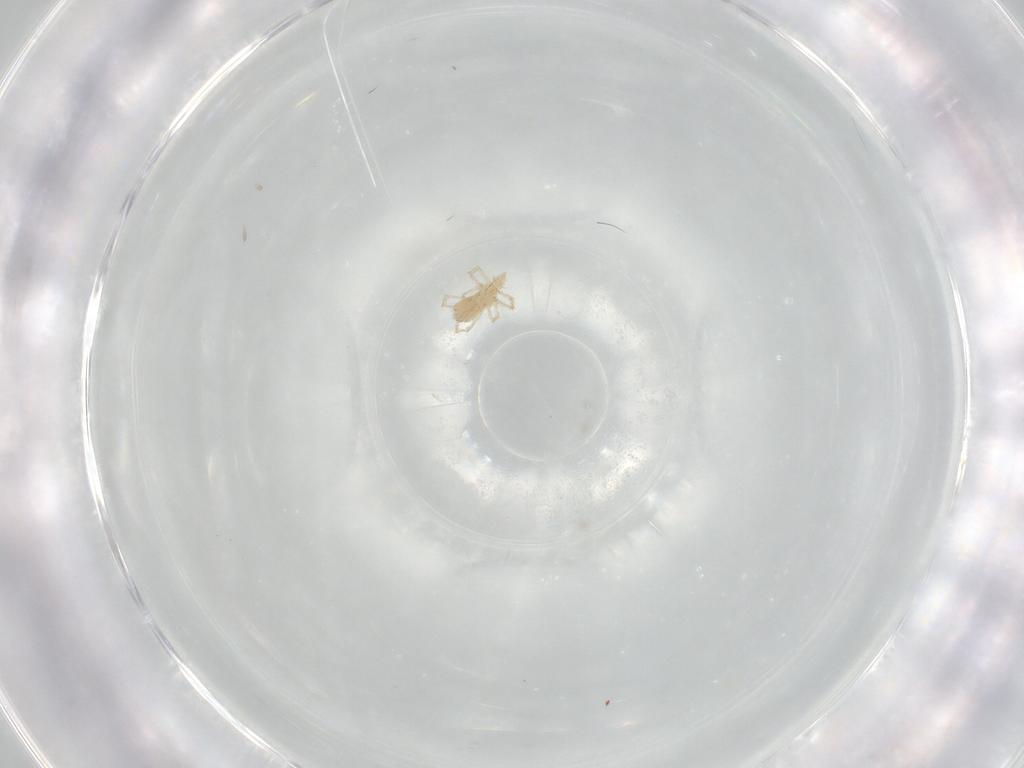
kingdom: Animalia
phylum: Arthropoda
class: Arachnida
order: Trombidiformes
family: Erythraeidae
